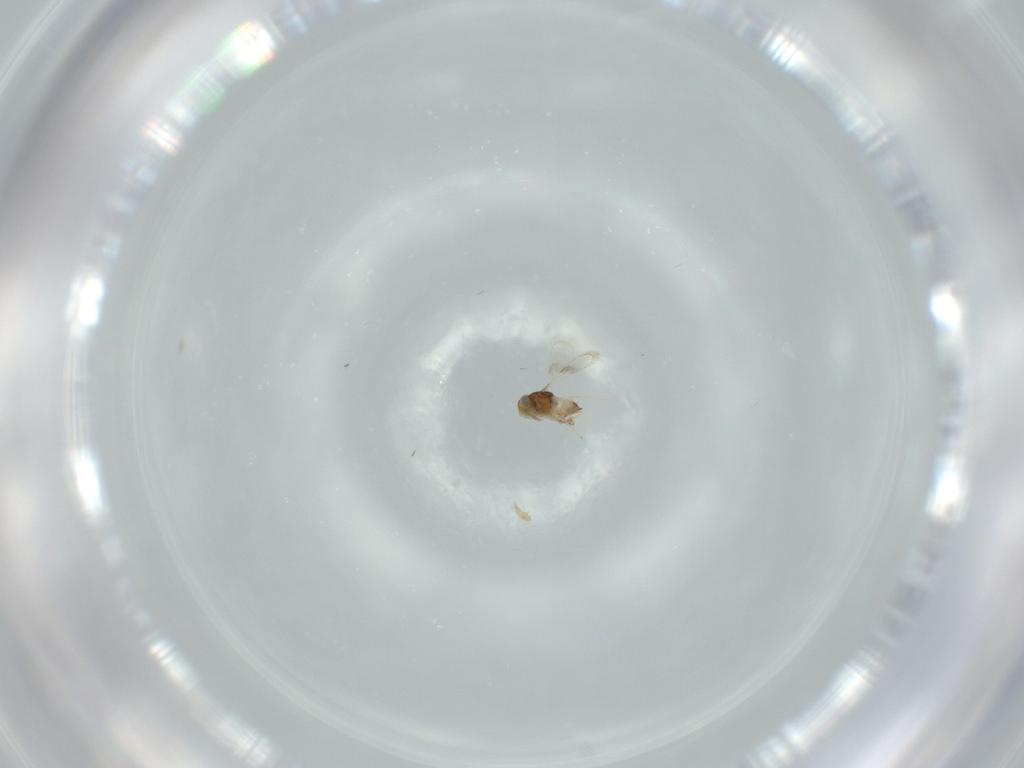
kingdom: Animalia
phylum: Arthropoda
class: Insecta
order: Hymenoptera
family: Aphelinidae
